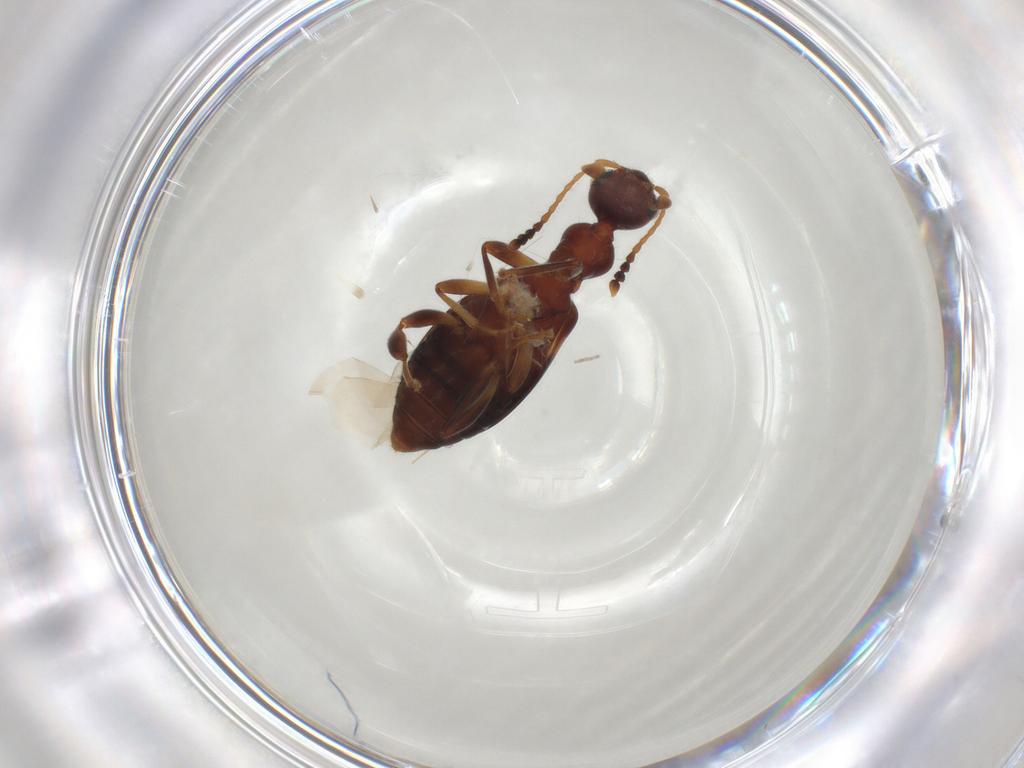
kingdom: Animalia
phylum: Arthropoda
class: Insecta
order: Coleoptera
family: Anthicidae
